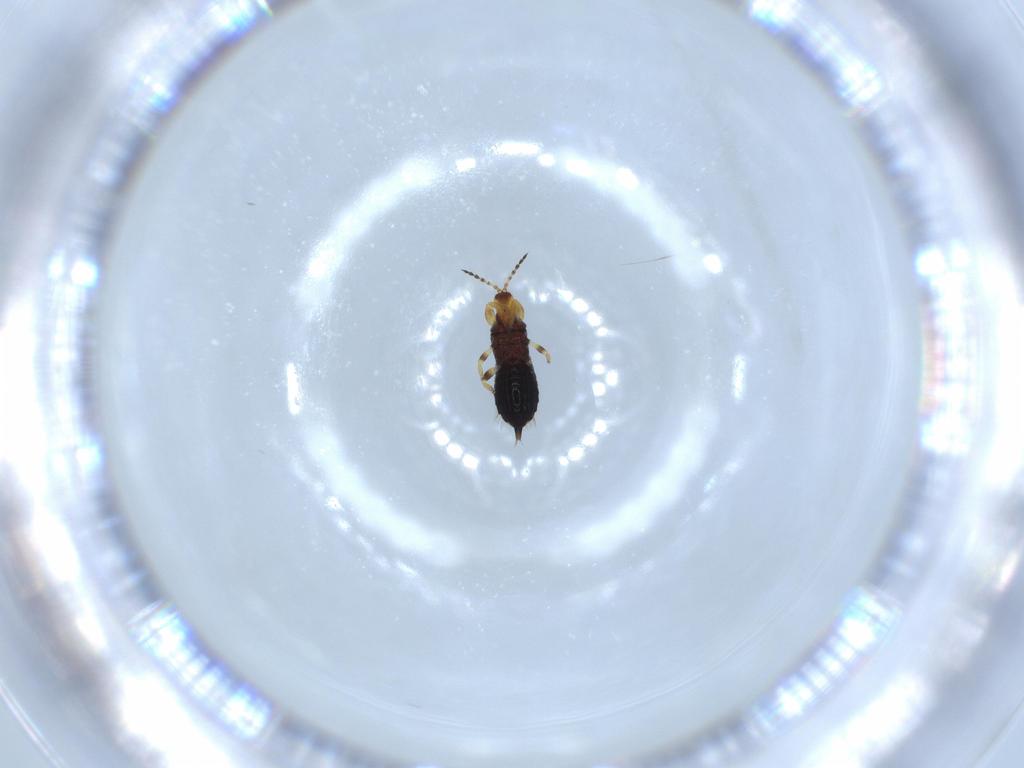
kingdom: Animalia
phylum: Arthropoda
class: Insecta
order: Thysanoptera
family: Phlaeothripidae
